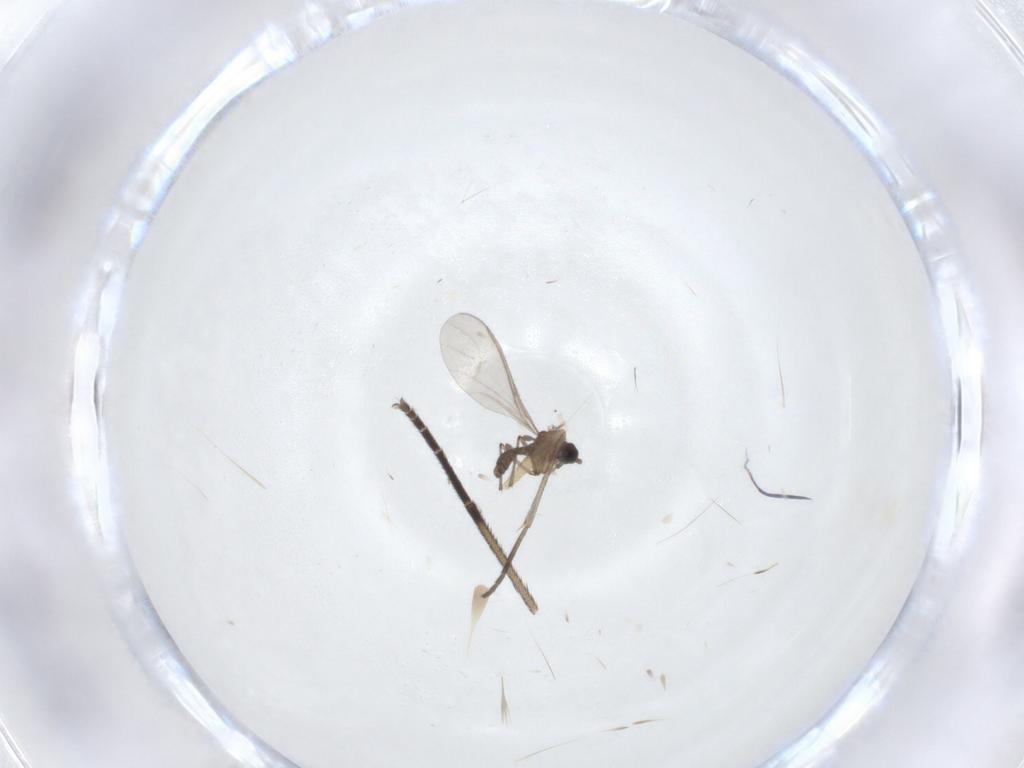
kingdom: Animalia
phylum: Arthropoda
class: Insecta
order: Diptera
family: Sciaridae
